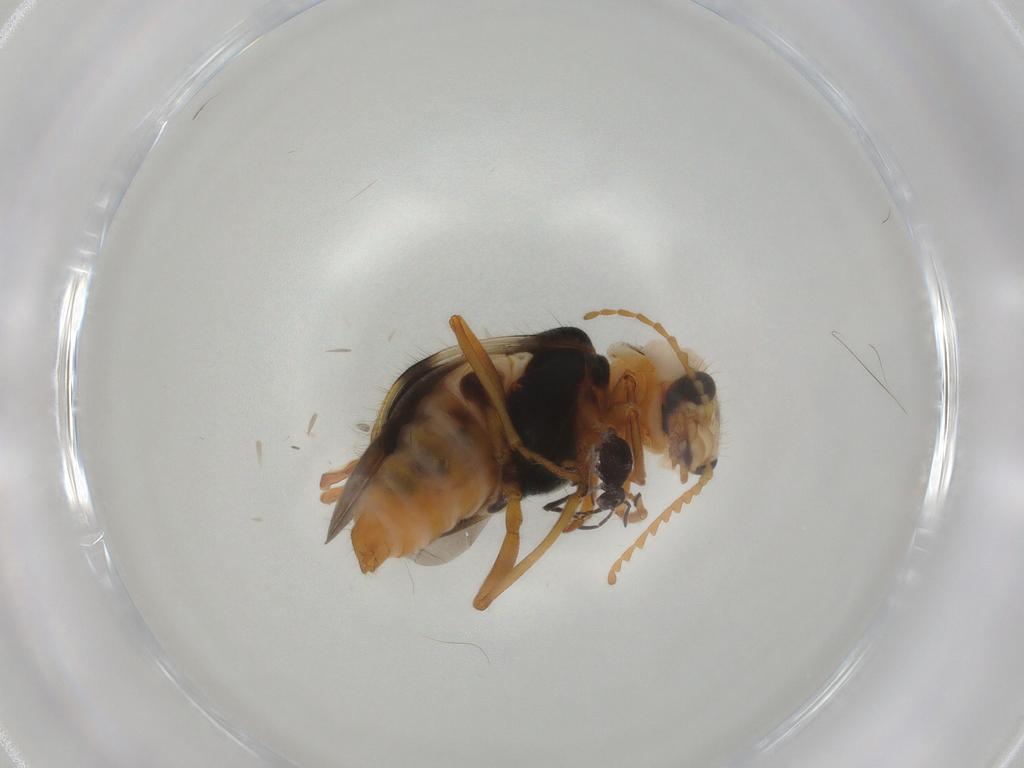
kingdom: Animalia
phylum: Arthropoda
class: Insecta
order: Coleoptera
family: Melyridae
